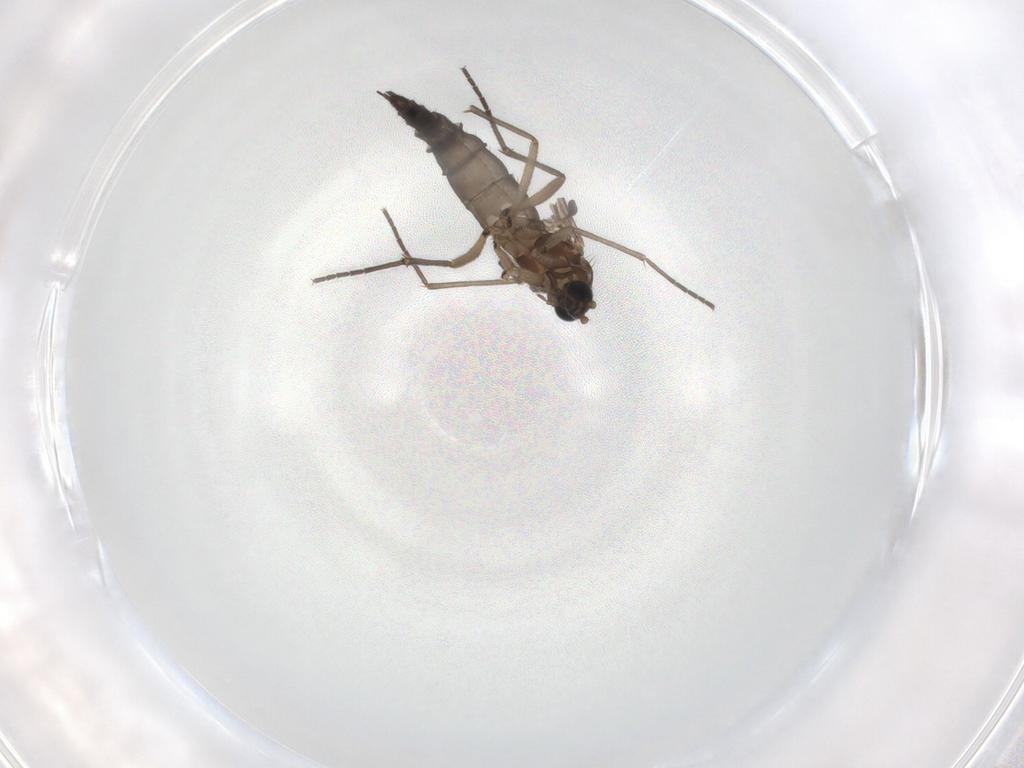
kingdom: Animalia
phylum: Arthropoda
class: Insecta
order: Diptera
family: Sciaridae
